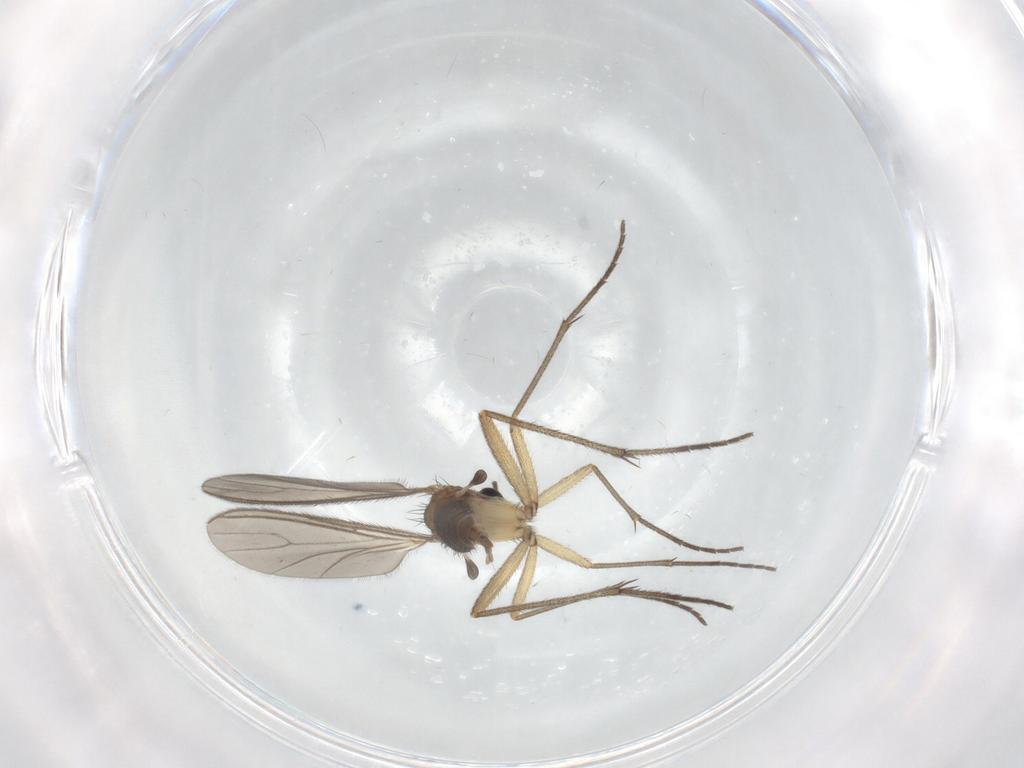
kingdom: Animalia
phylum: Arthropoda
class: Insecta
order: Diptera
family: Sciaridae
